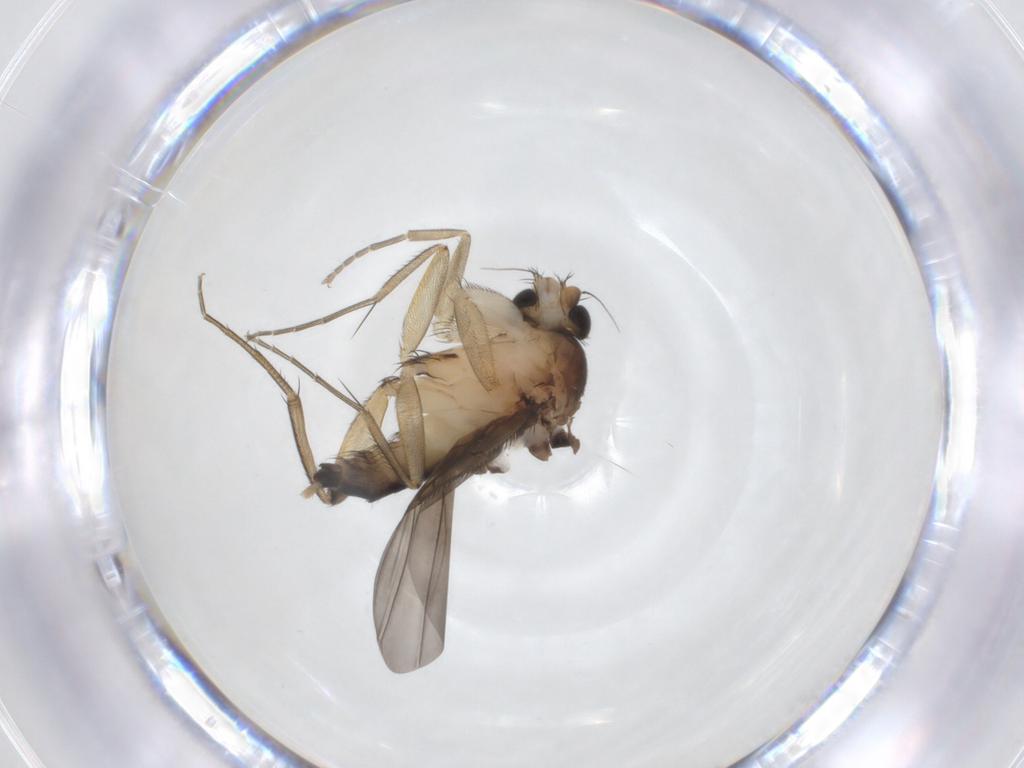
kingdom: Animalia
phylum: Arthropoda
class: Insecta
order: Diptera
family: Phoridae
